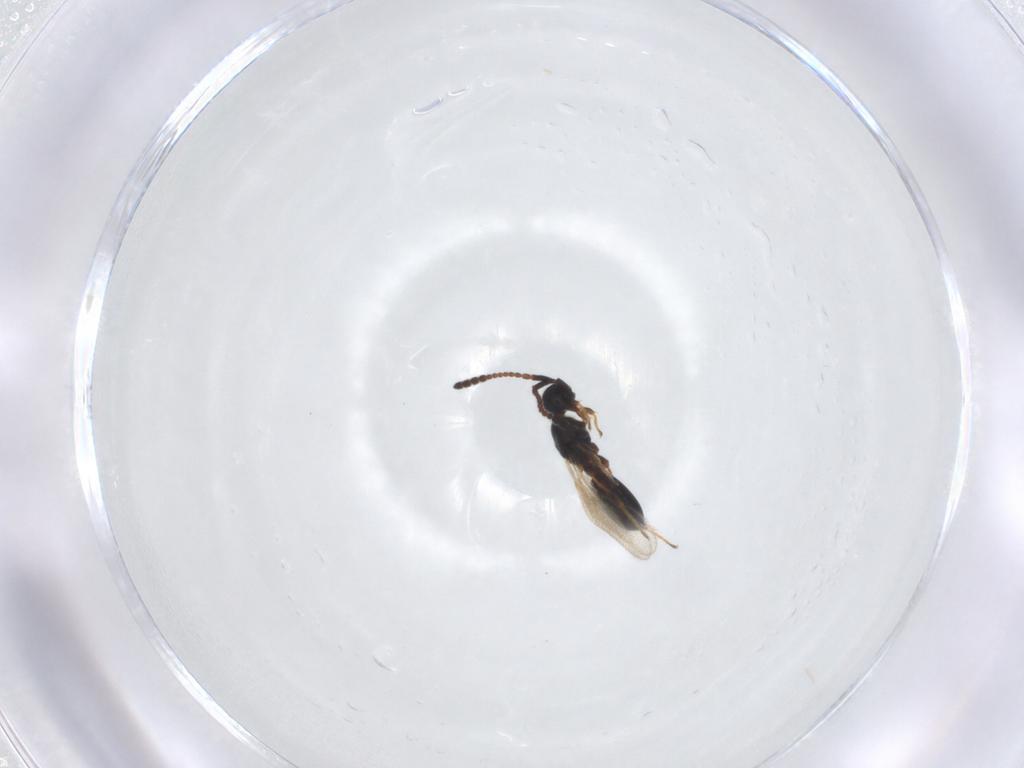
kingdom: Animalia
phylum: Arthropoda
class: Insecta
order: Hymenoptera
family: Diapriidae
